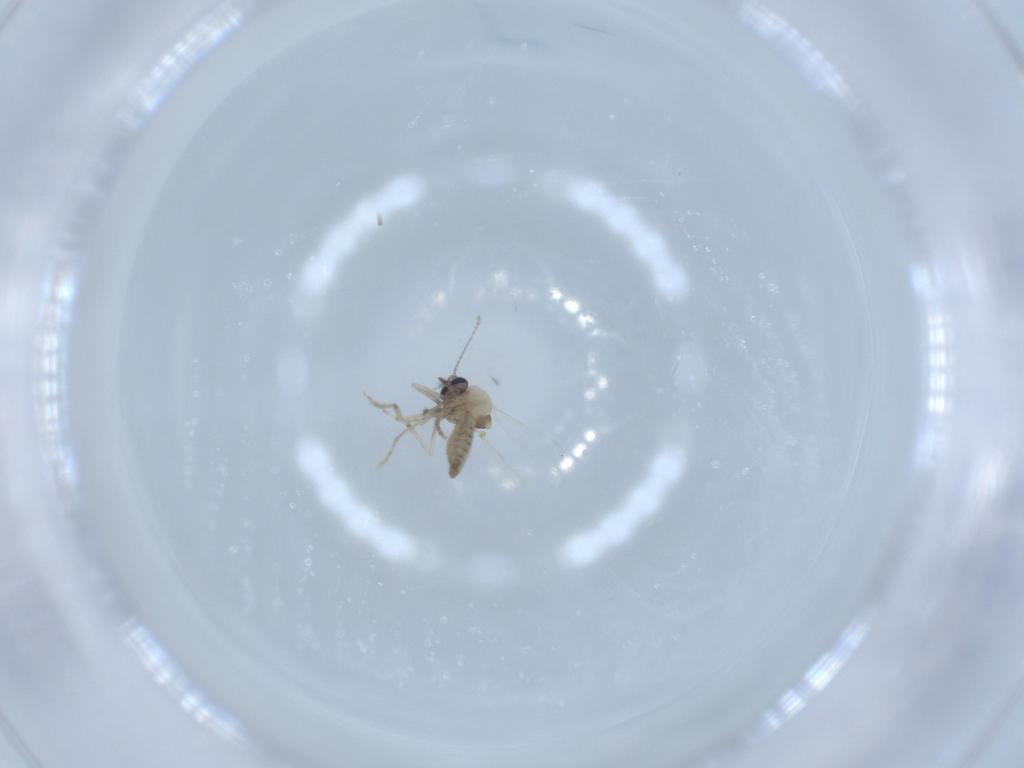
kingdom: Animalia
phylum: Arthropoda
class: Insecta
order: Diptera
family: Ceratopogonidae
